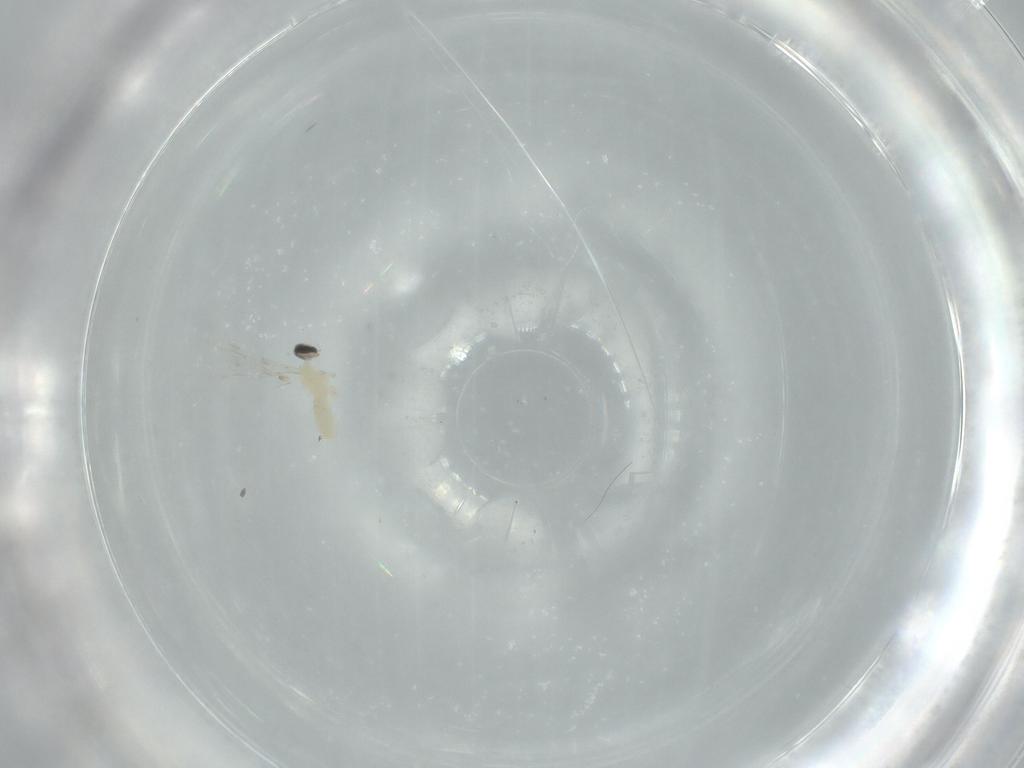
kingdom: Animalia
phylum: Arthropoda
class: Insecta
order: Diptera
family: Cecidomyiidae
